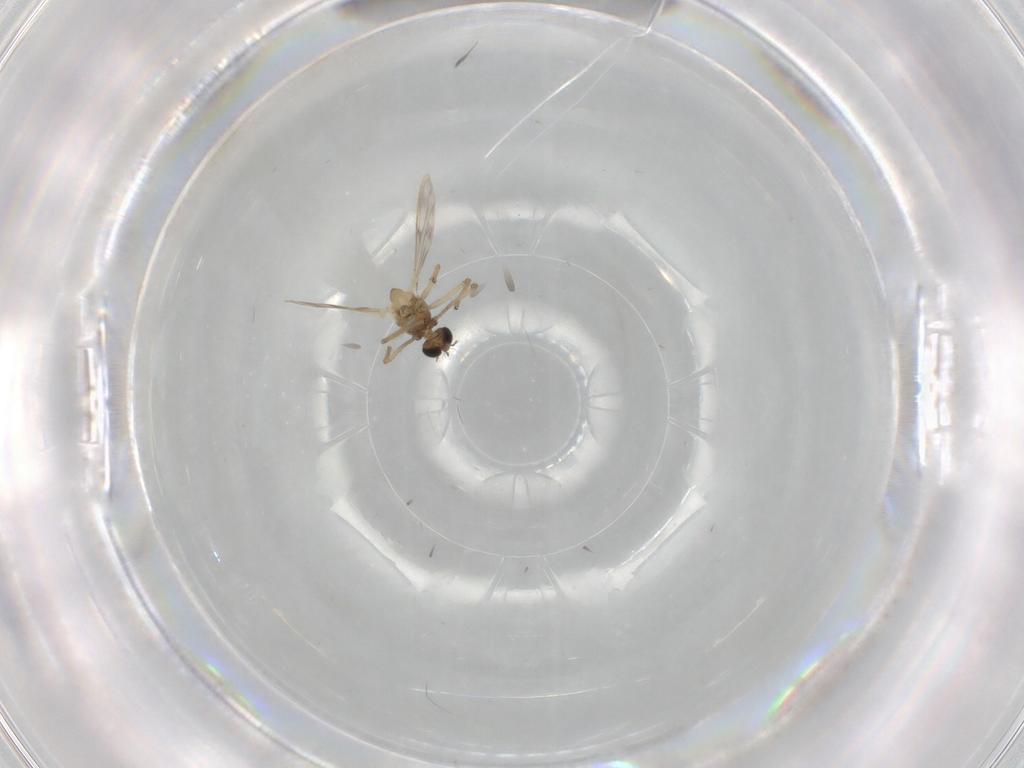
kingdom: Animalia
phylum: Arthropoda
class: Insecta
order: Diptera
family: Chironomidae
